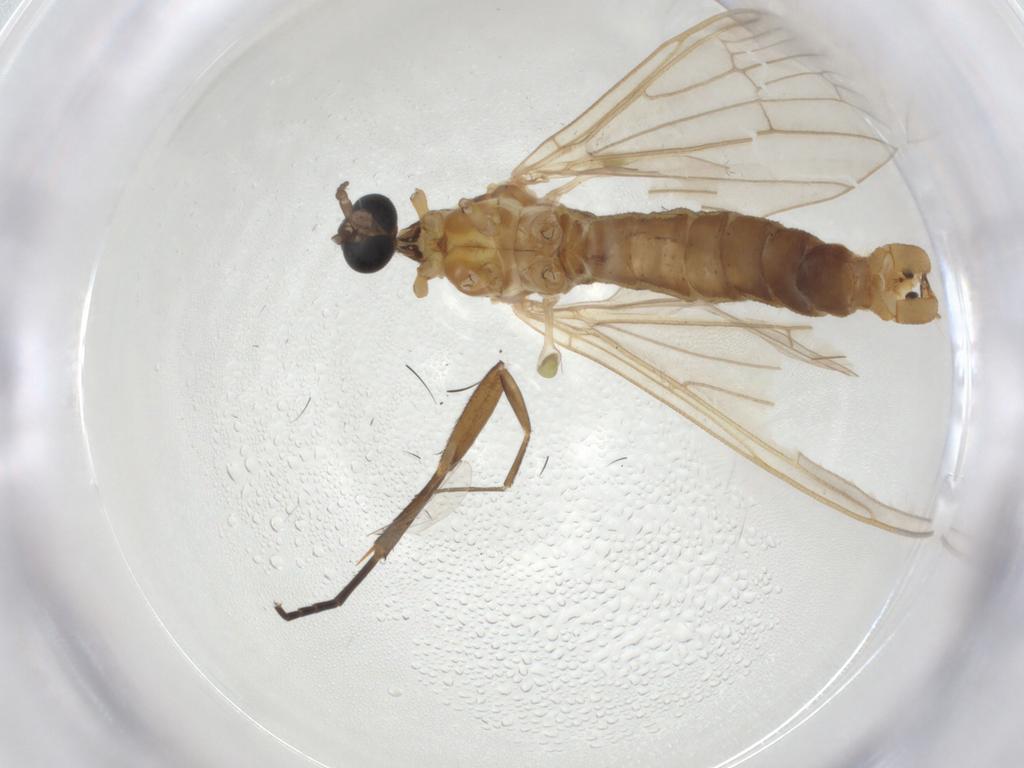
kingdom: Animalia
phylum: Arthropoda
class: Insecta
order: Diptera
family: Limoniidae
